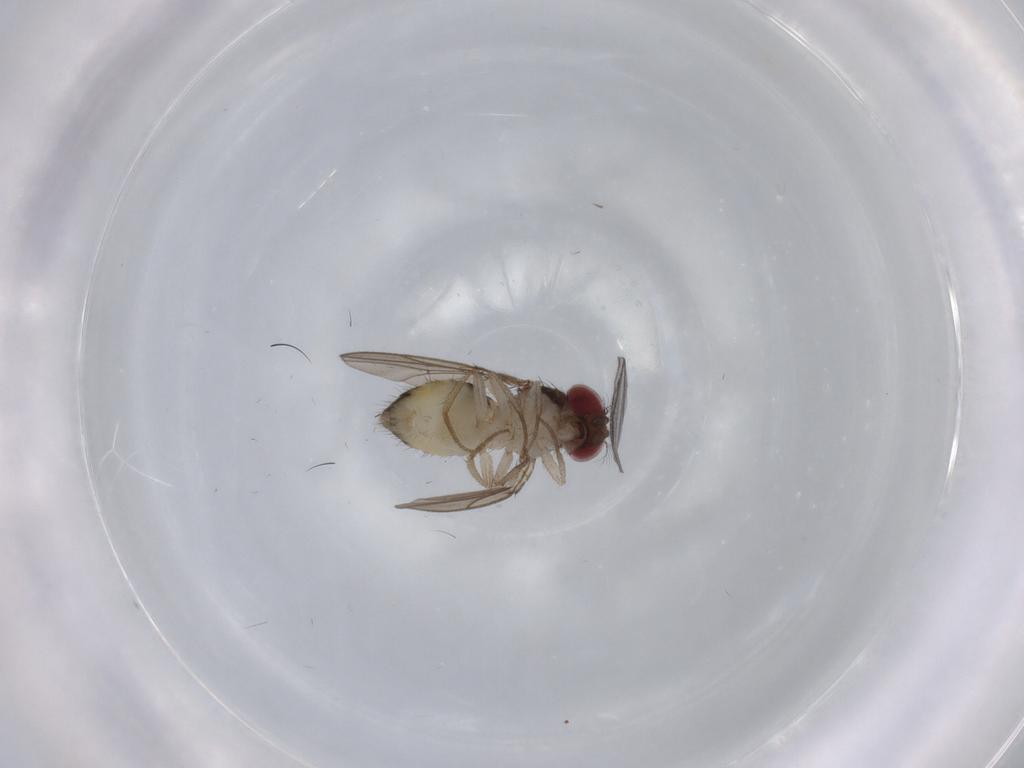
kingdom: Animalia
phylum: Arthropoda
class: Insecta
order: Diptera
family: Drosophilidae
